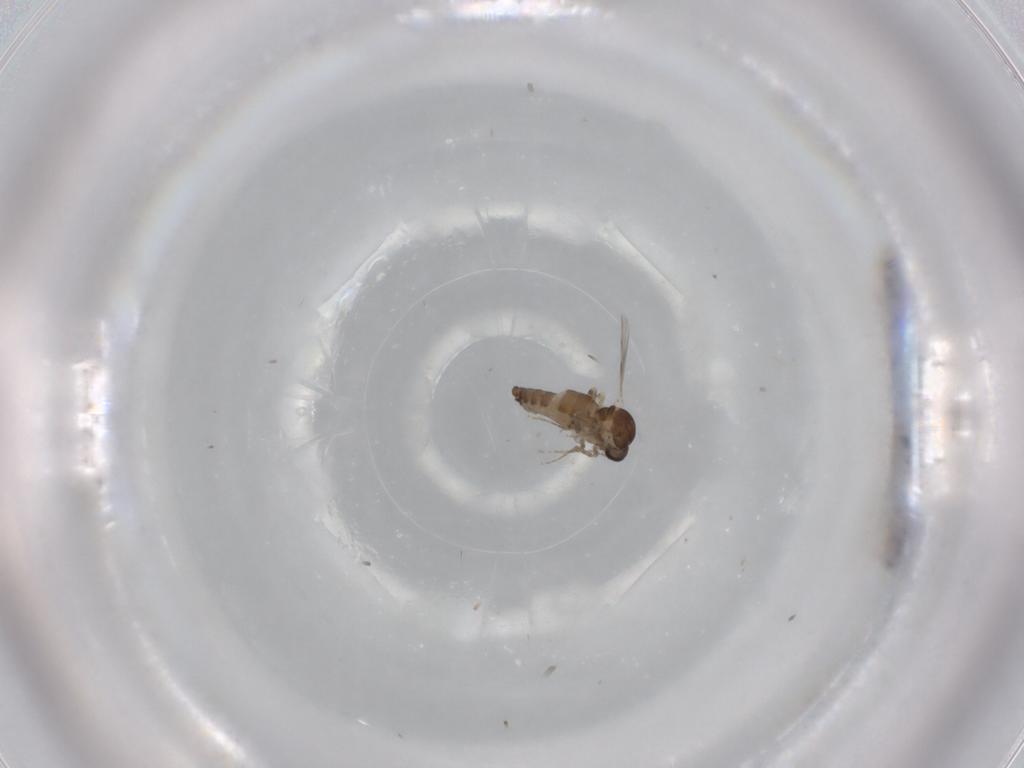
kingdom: Animalia
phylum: Arthropoda
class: Insecta
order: Diptera
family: Ceratopogonidae
